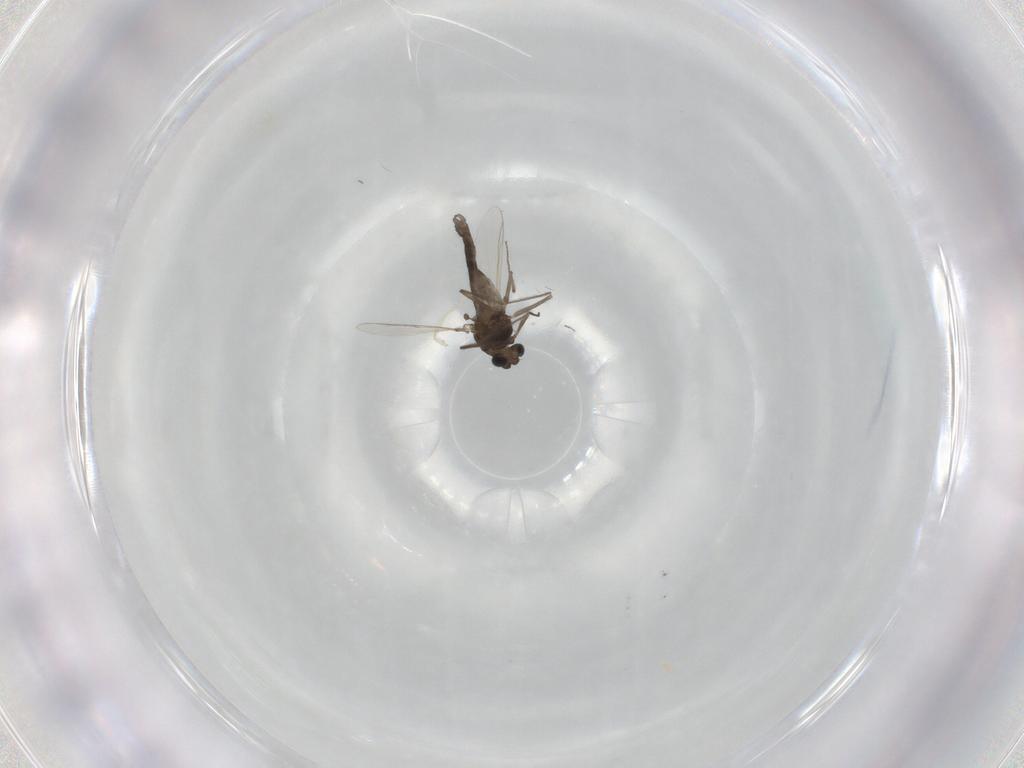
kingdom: Animalia
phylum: Arthropoda
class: Insecta
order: Diptera
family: Chironomidae
